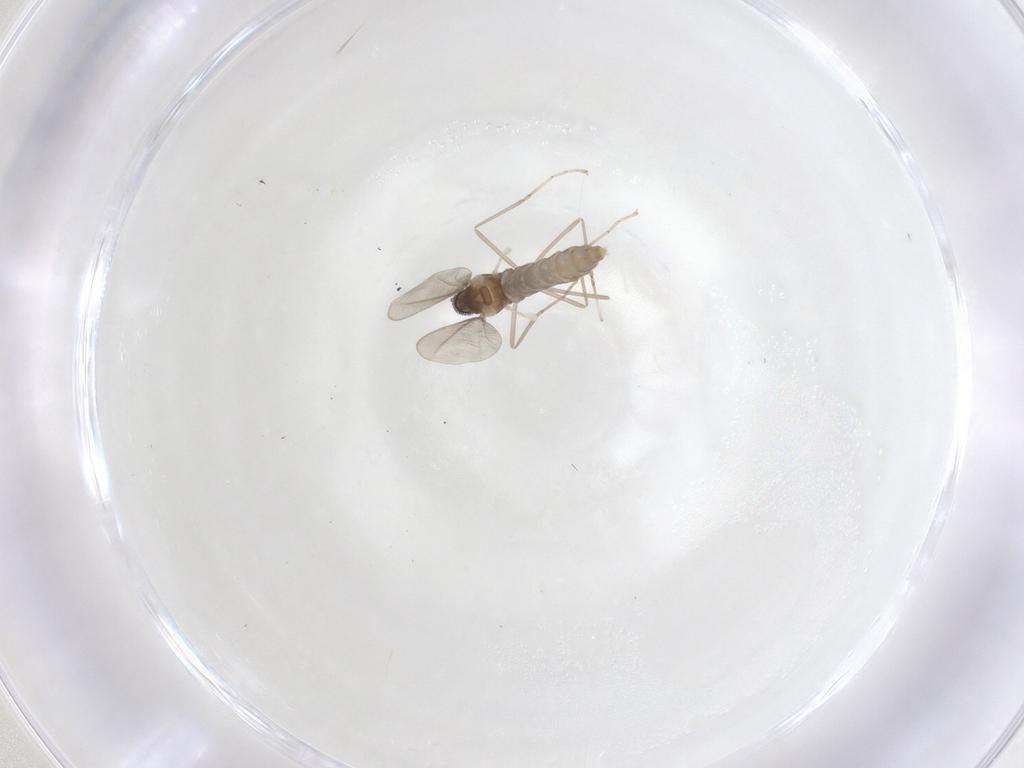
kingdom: Animalia
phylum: Arthropoda
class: Insecta
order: Diptera
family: Cecidomyiidae
